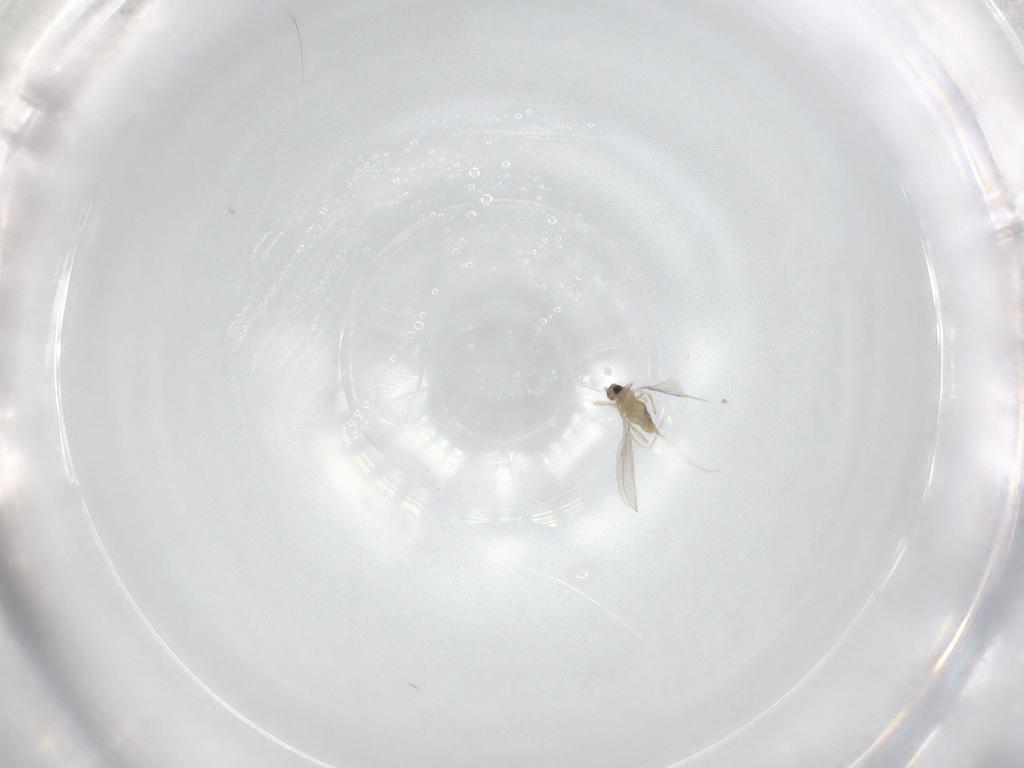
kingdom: Animalia
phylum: Arthropoda
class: Insecta
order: Diptera
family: Cecidomyiidae
